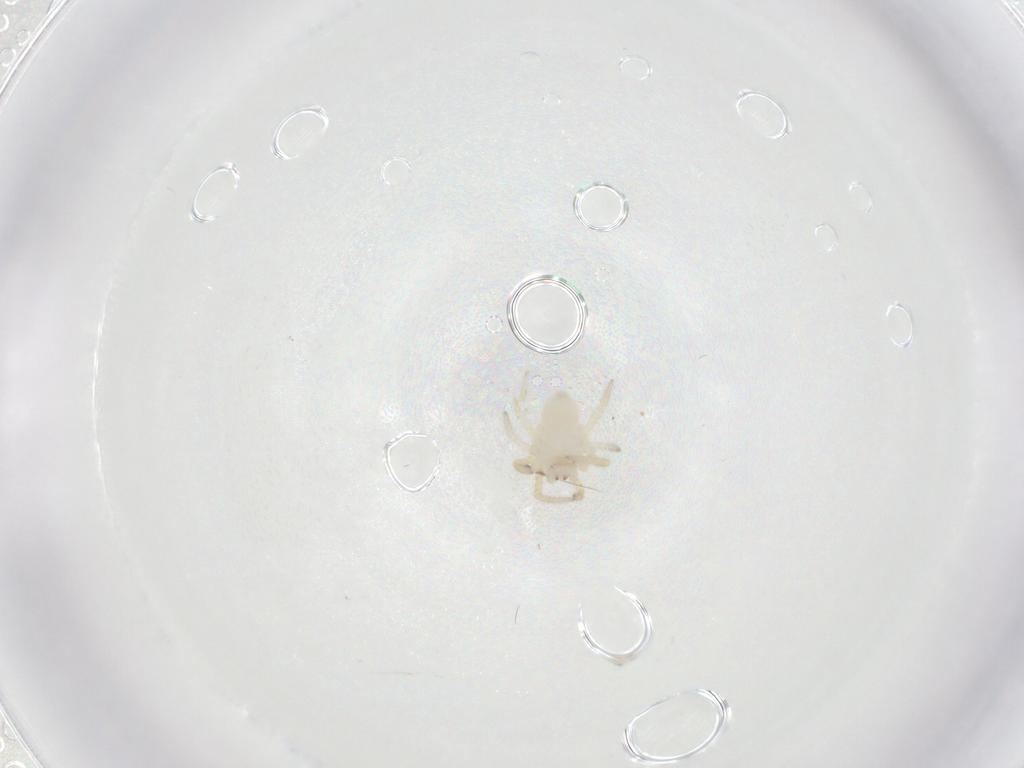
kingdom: Animalia
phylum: Arthropoda
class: Arachnida
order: Araneae
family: Theridiidae
